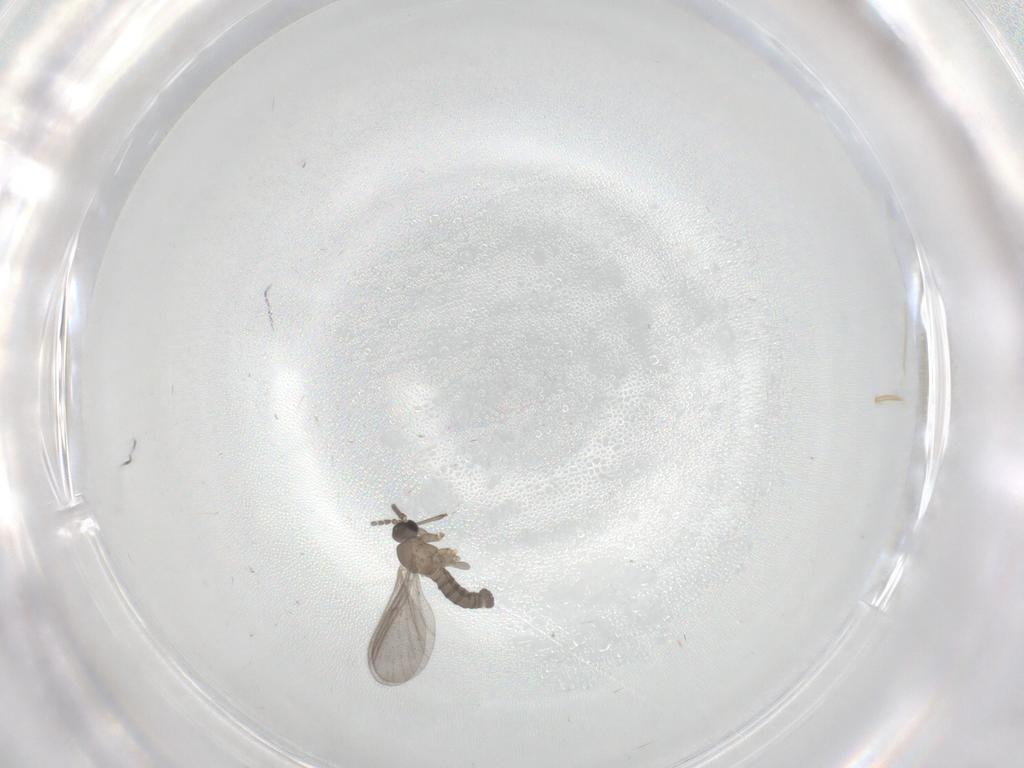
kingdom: Animalia
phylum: Arthropoda
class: Insecta
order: Diptera
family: Sciaridae
